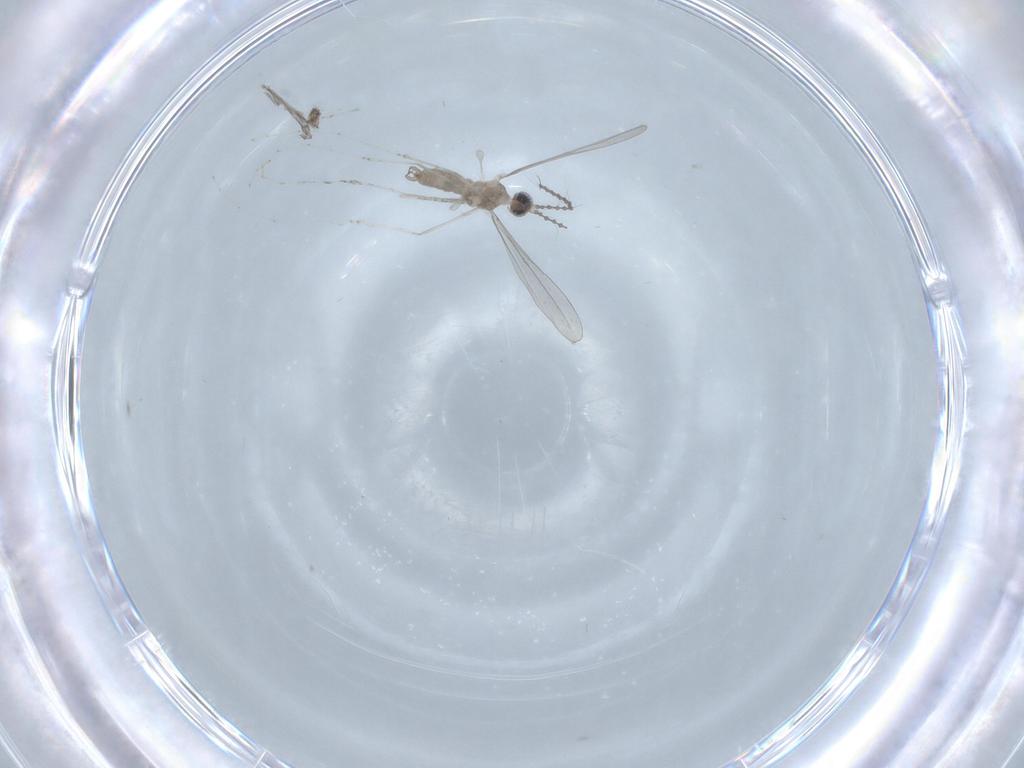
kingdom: Animalia
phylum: Arthropoda
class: Insecta
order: Diptera
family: Cecidomyiidae
